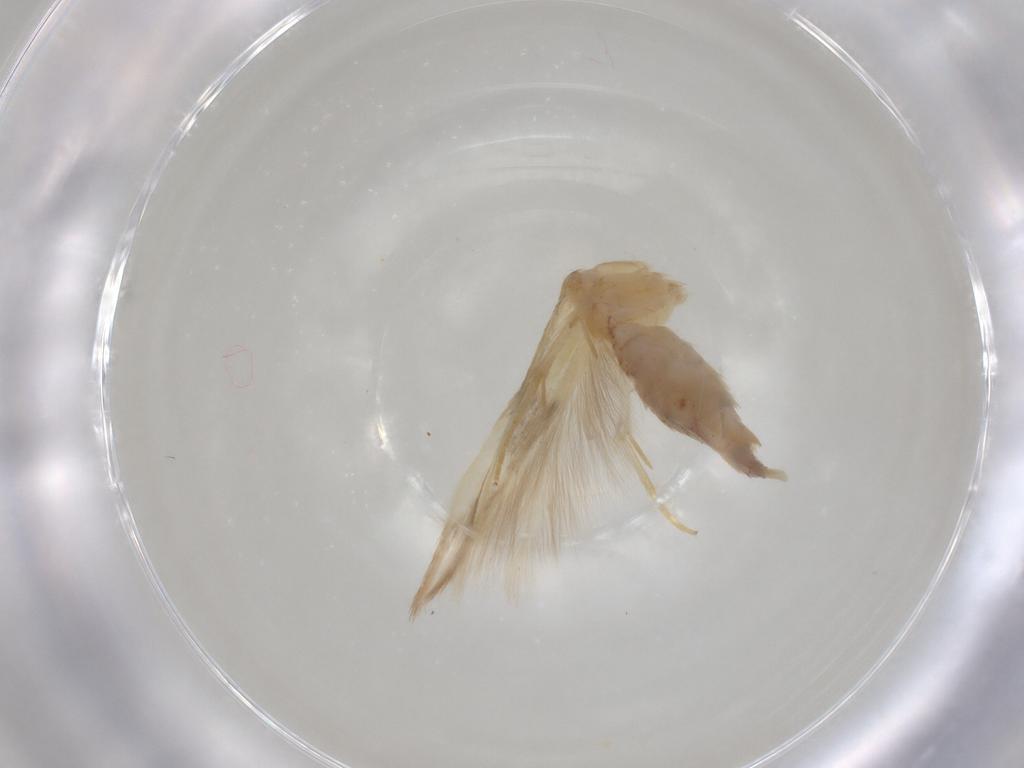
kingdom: Animalia
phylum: Arthropoda
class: Insecta
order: Lepidoptera
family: Erebidae
